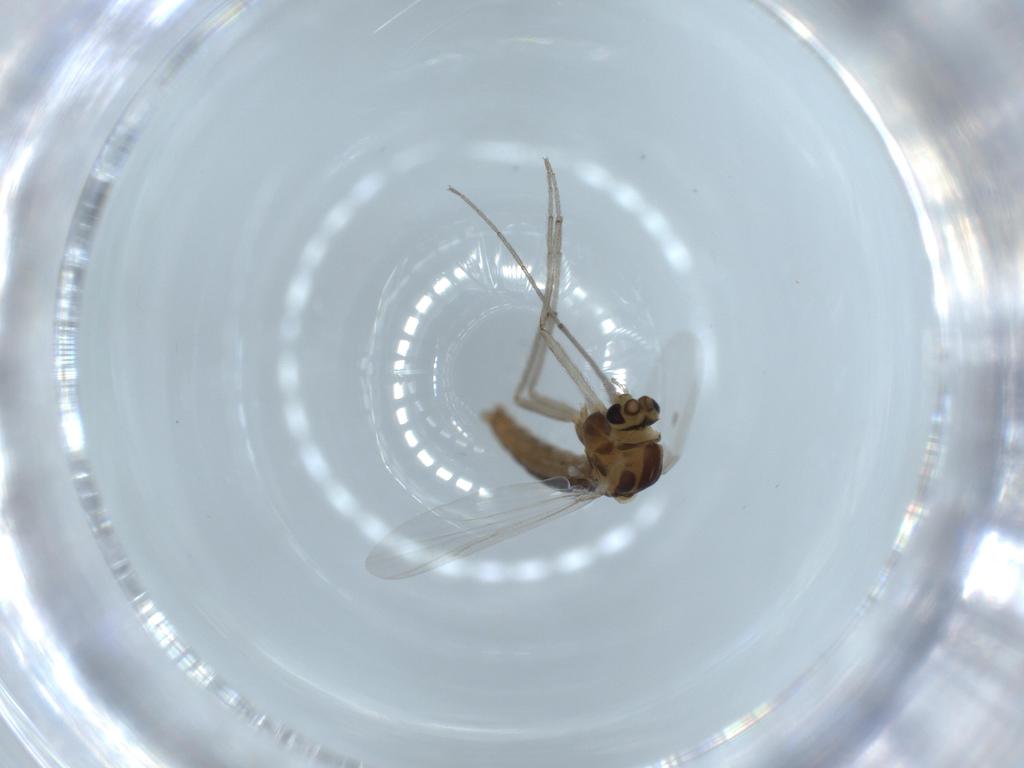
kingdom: Animalia
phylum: Arthropoda
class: Insecta
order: Diptera
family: Chironomidae
